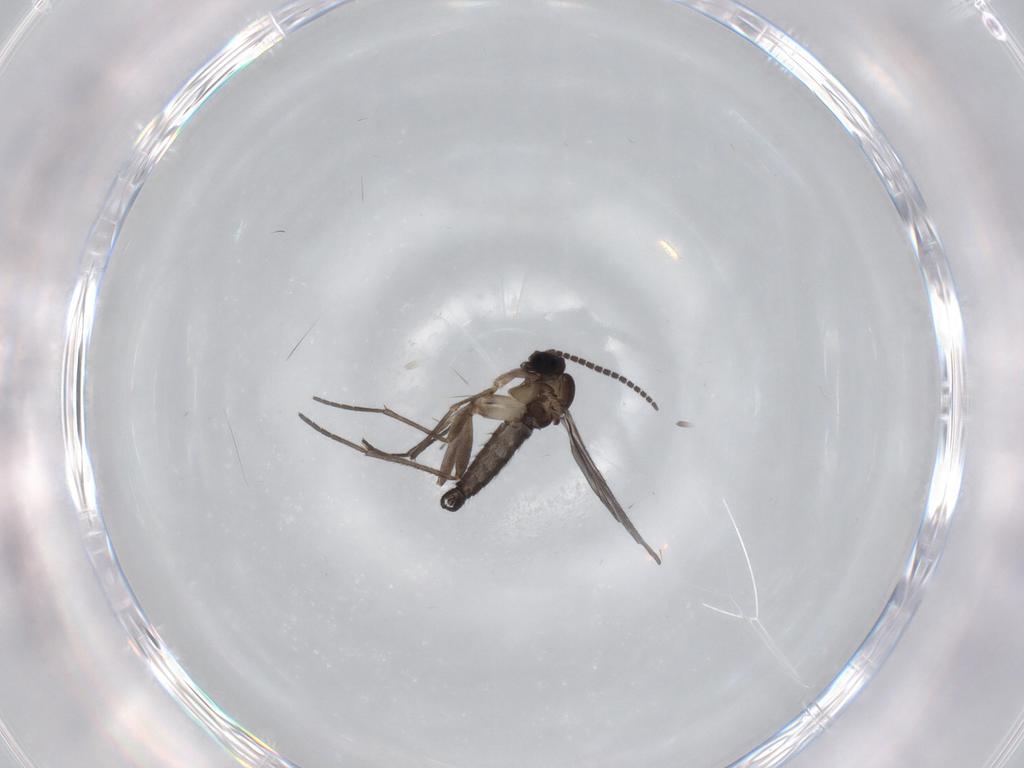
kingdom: Animalia
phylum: Arthropoda
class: Insecta
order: Diptera
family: Sciaridae
